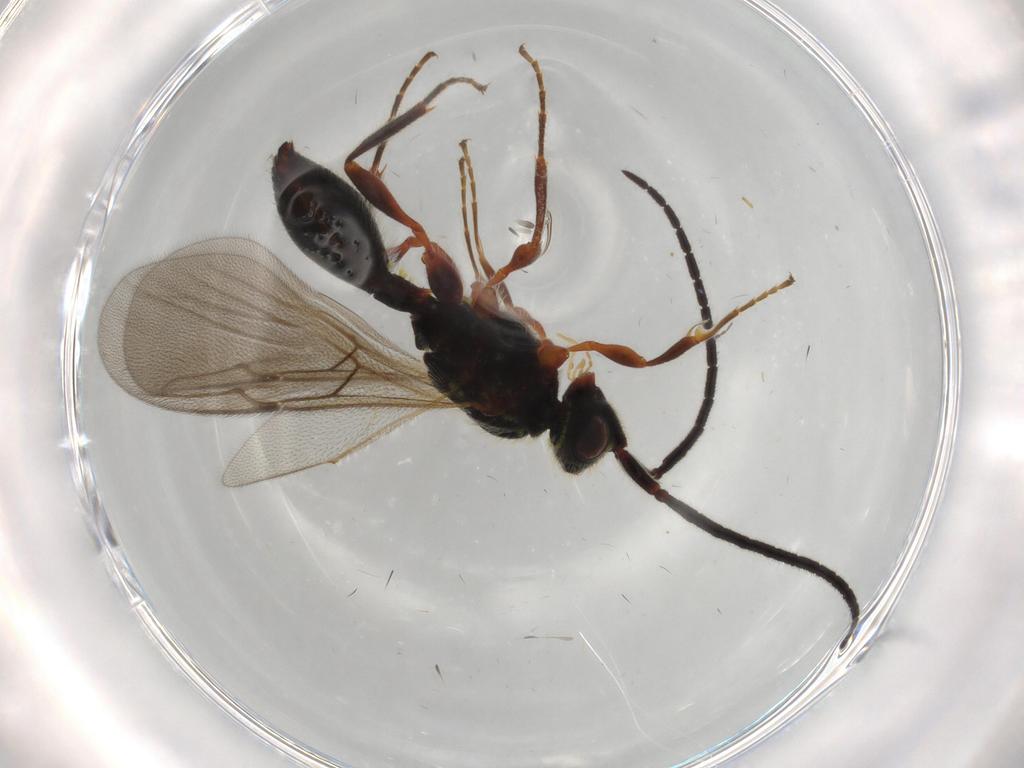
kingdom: Animalia
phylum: Arthropoda
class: Insecta
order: Hymenoptera
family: Diapriidae
